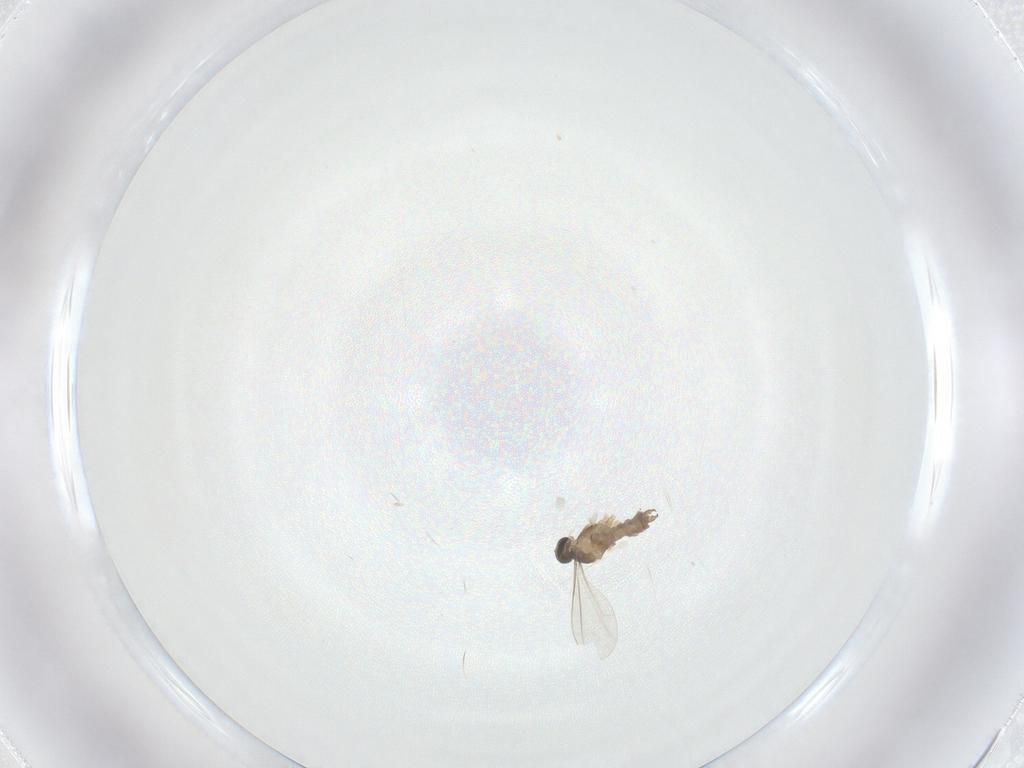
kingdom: Animalia
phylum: Arthropoda
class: Insecta
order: Diptera
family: Cecidomyiidae
